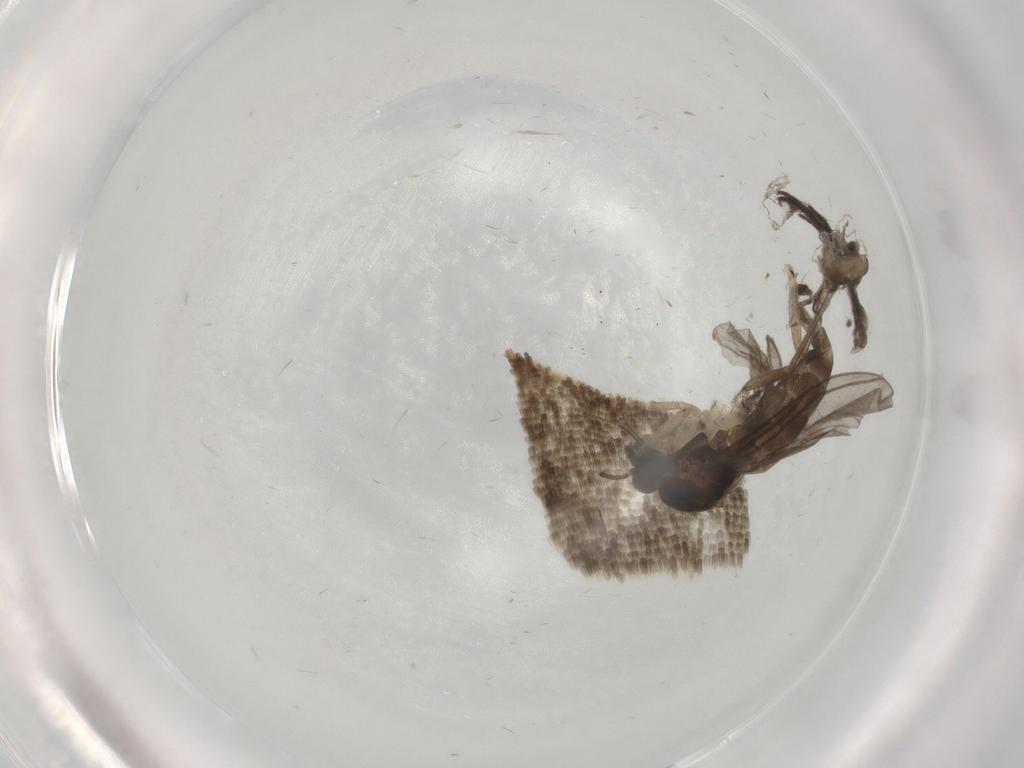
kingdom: Animalia
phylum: Arthropoda
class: Insecta
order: Diptera
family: Cecidomyiidae
